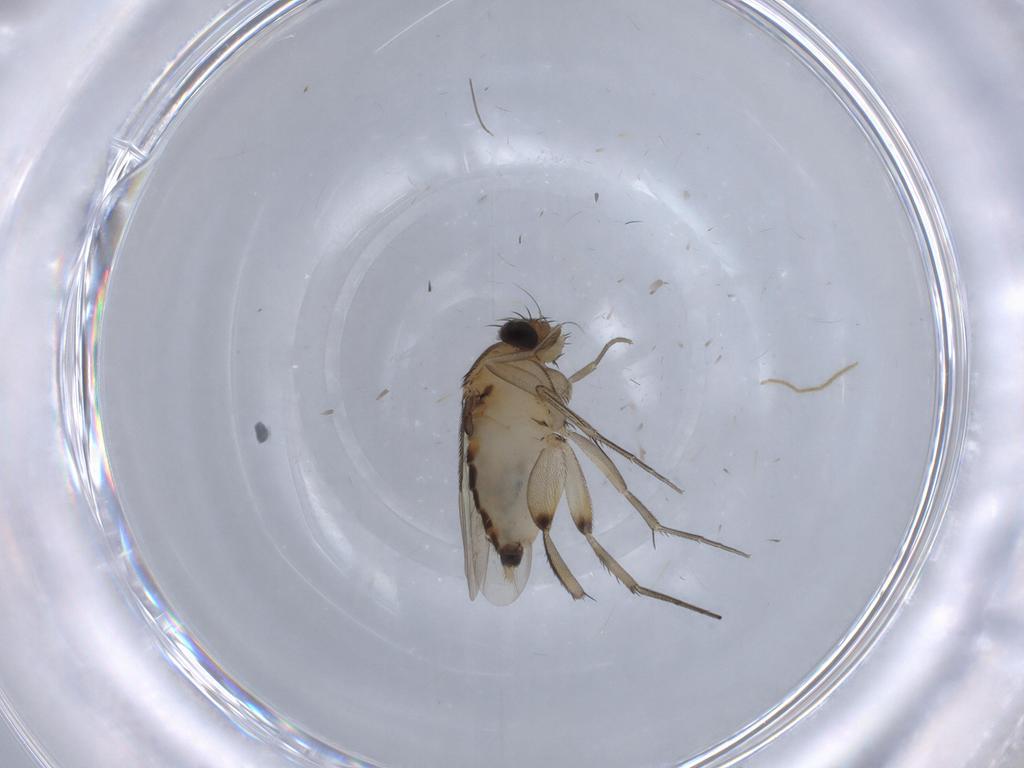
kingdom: Animalia
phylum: Arthropoda
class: Insecta
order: Diptera
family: Phoridae
